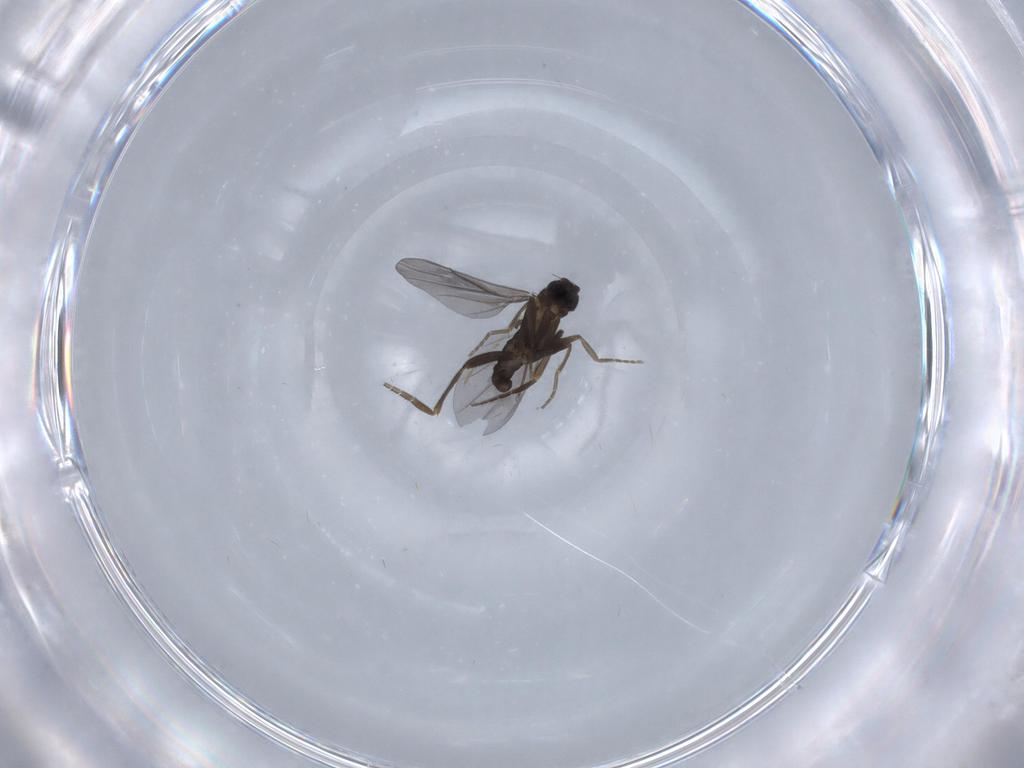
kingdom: Animalia
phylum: Arthropoda
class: Insecta
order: Diptera
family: Phoridae
